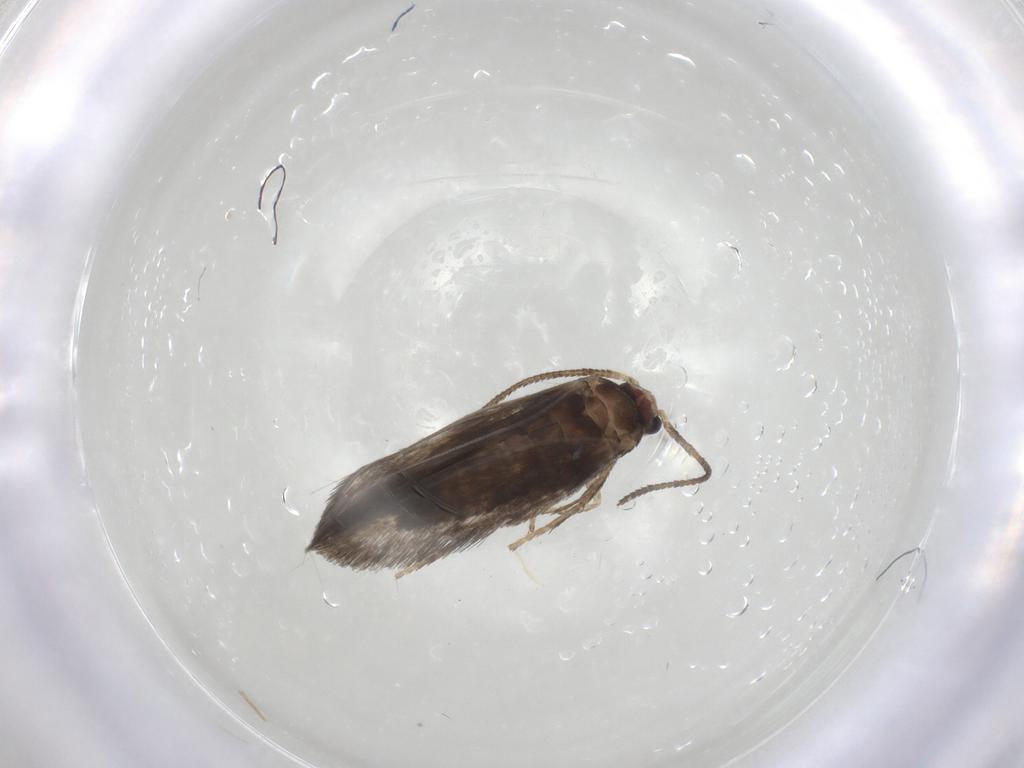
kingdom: Animalia
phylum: Arthropoda
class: Insecta
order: Lepidoptera
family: Nepticulidae
